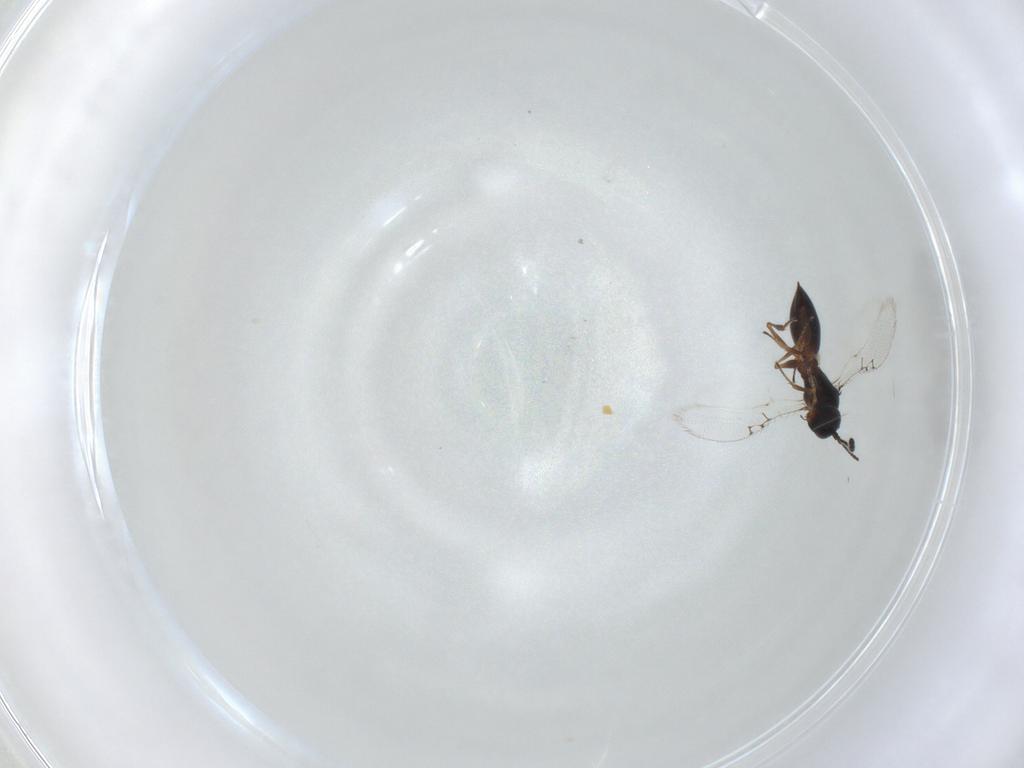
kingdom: Animalia
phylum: Arthropoda
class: Insecta
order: Hymenoptera
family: Figitidae
